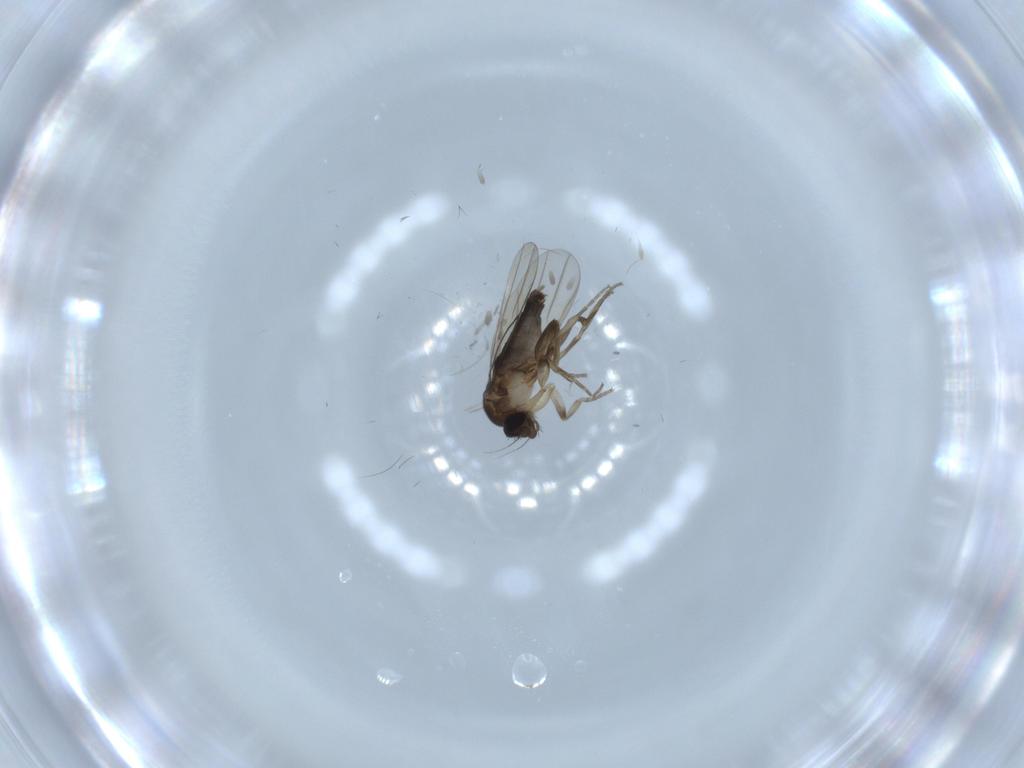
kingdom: Animalia
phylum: Arthropoda
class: Insecta
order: Diptera
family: Phoridae
